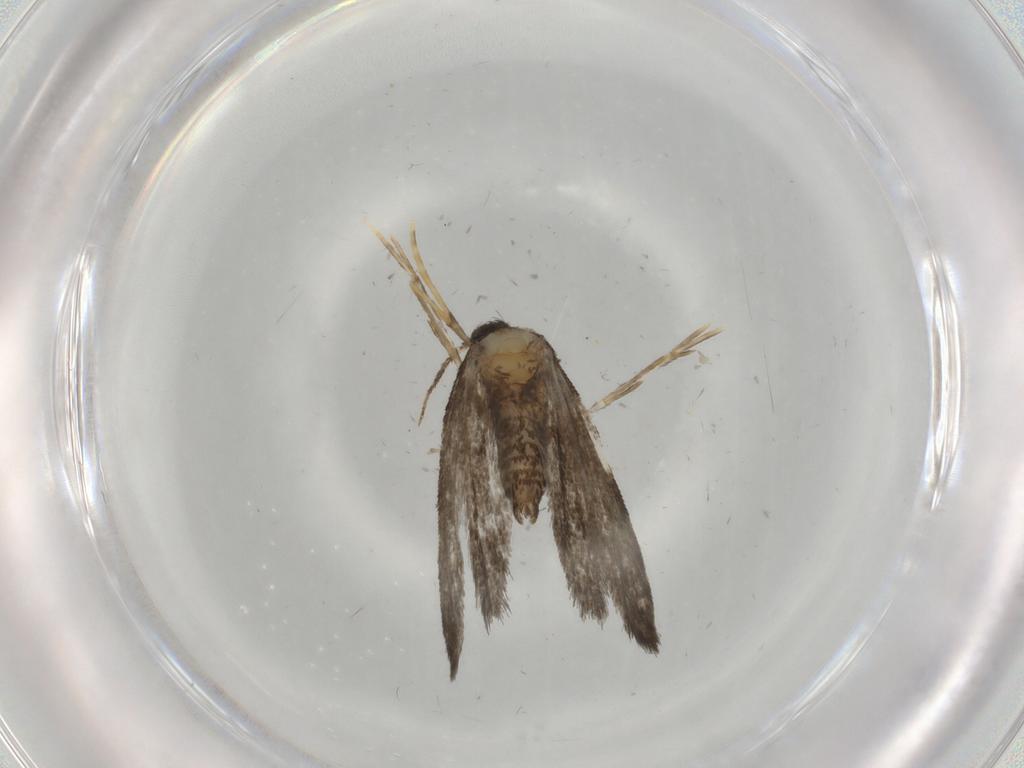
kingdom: Animalia
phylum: Arthropoda
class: Insecta
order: Lepidoptera
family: Psychidae
